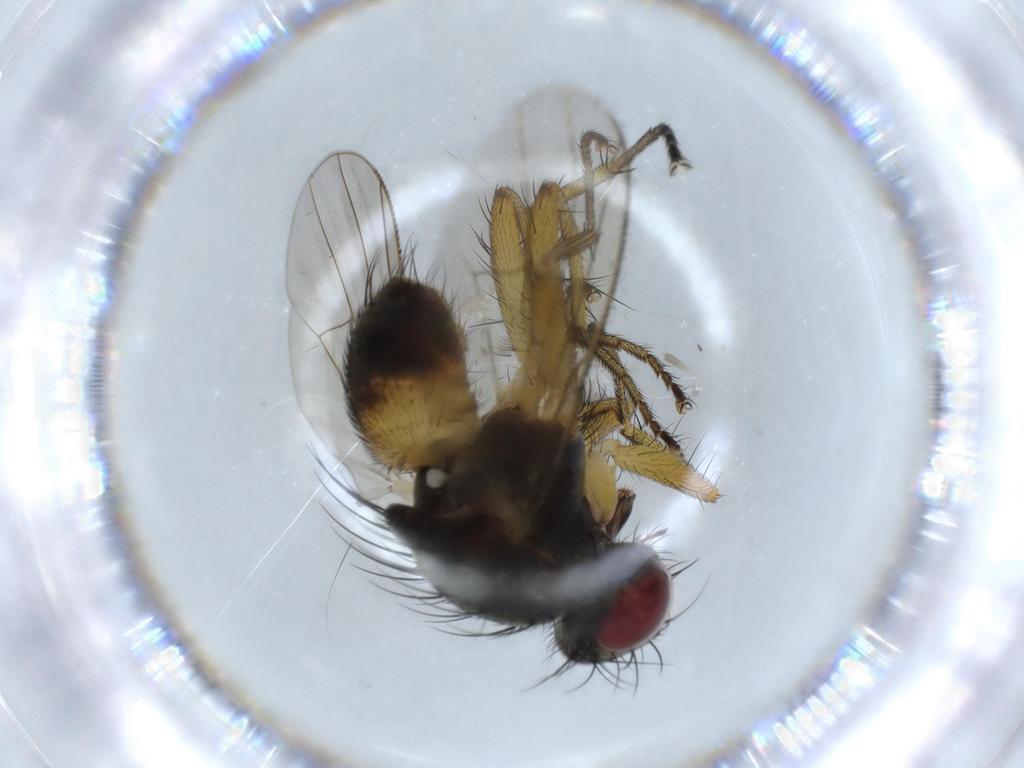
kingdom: Animalia
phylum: Arthropoda
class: Insecta
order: Diptera
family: Muscidae
